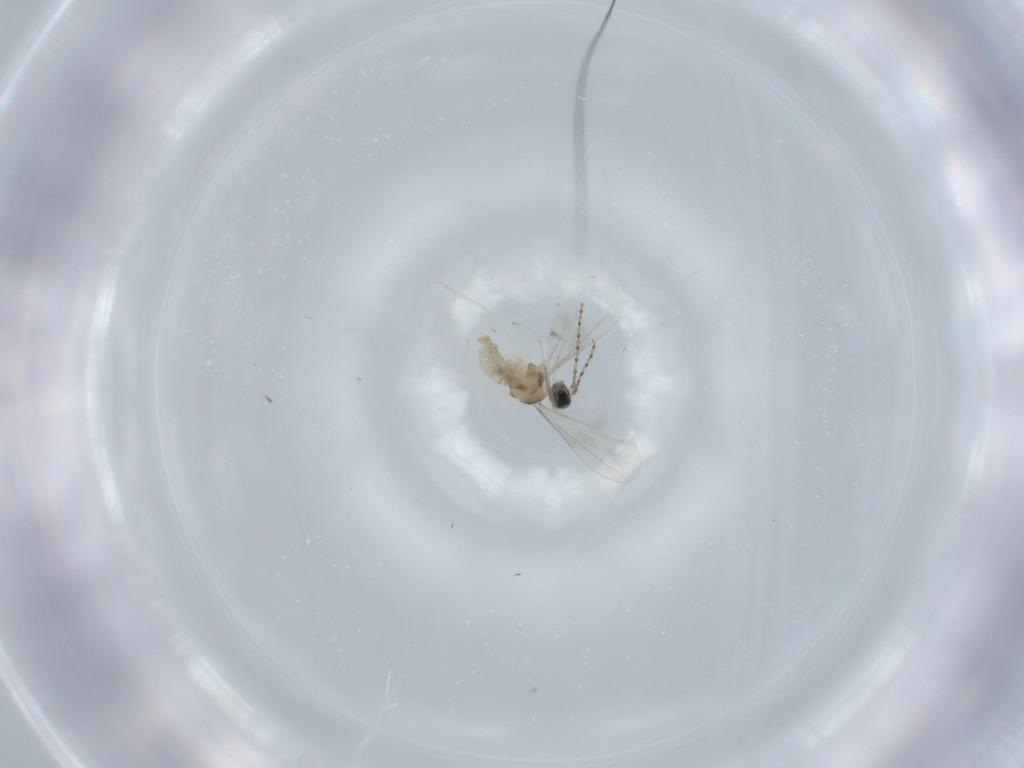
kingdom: Animalia
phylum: Arthropoda
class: Insecta
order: Diptera
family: Cecidomyiidae
